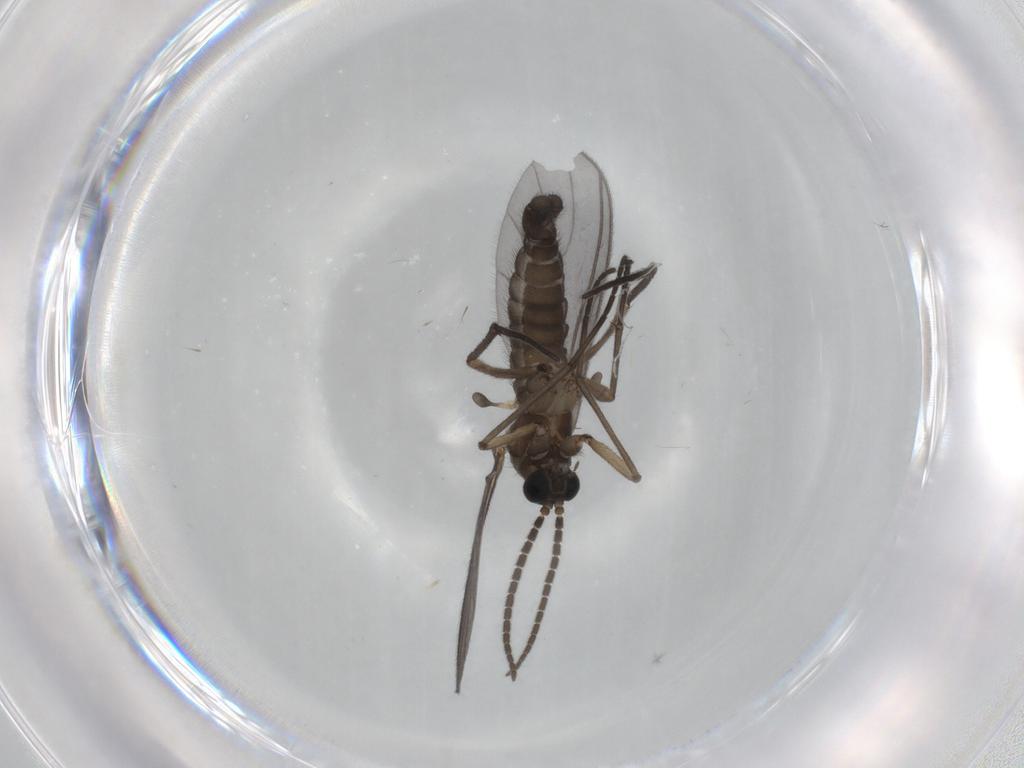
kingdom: Animalia
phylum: Arthropoda
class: Insecta
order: Diptera
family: Sciaridae
